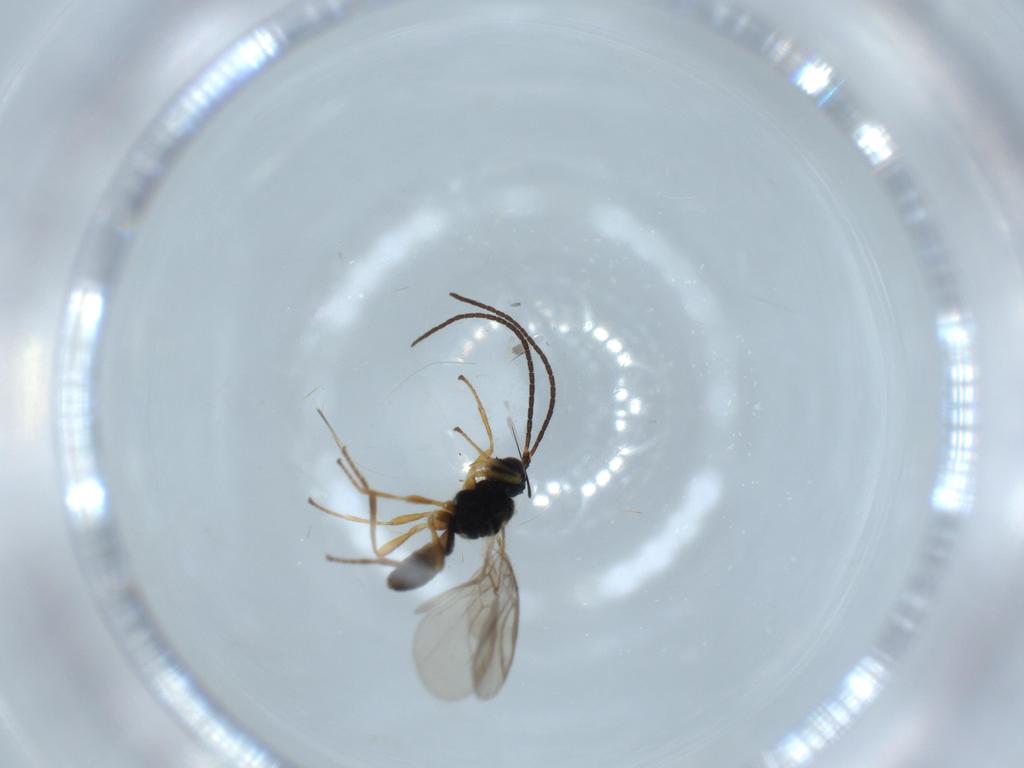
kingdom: Animalia
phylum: Arthropoda
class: Insecta
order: Hymenoptera
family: Braconidae
